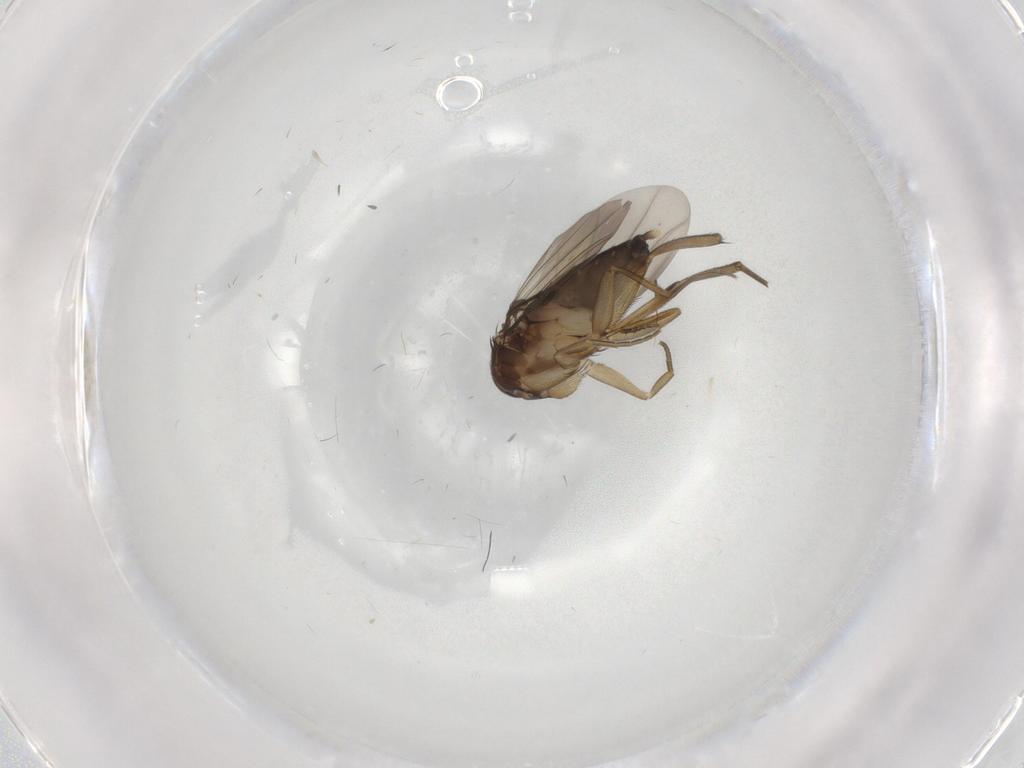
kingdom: Animalia
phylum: Arthropoda
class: Insecta
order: Diptera
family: Phoridae
